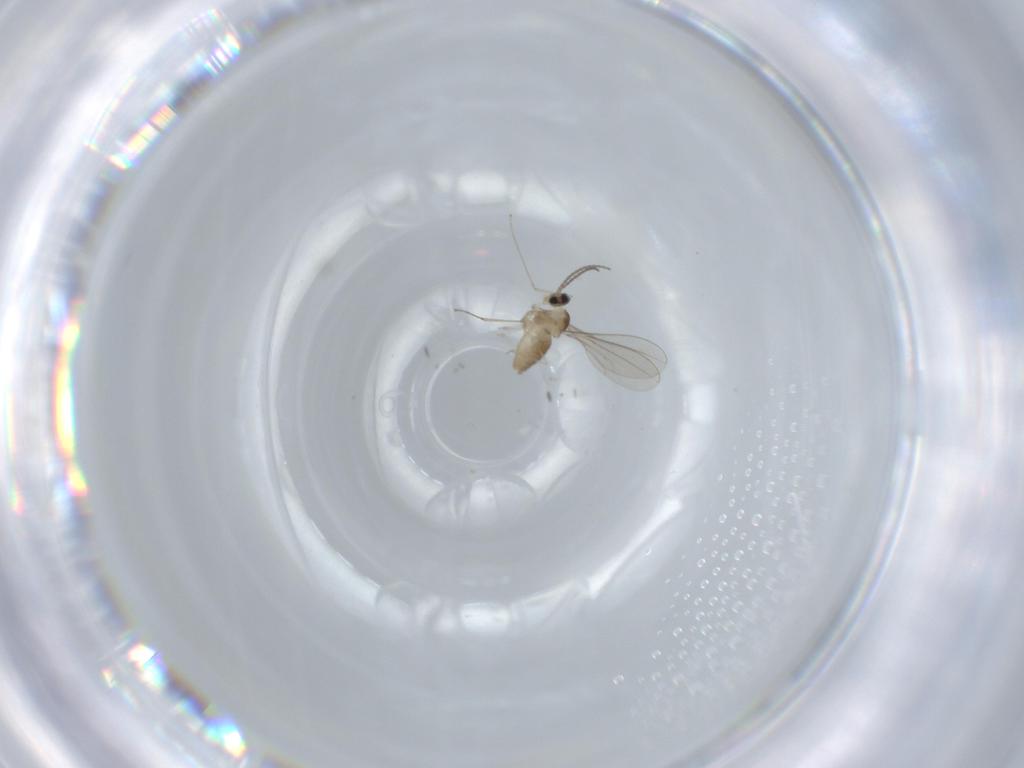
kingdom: Animalia
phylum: Arthropoda
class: Insecta
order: Diptera
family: Cecidomyiidae
